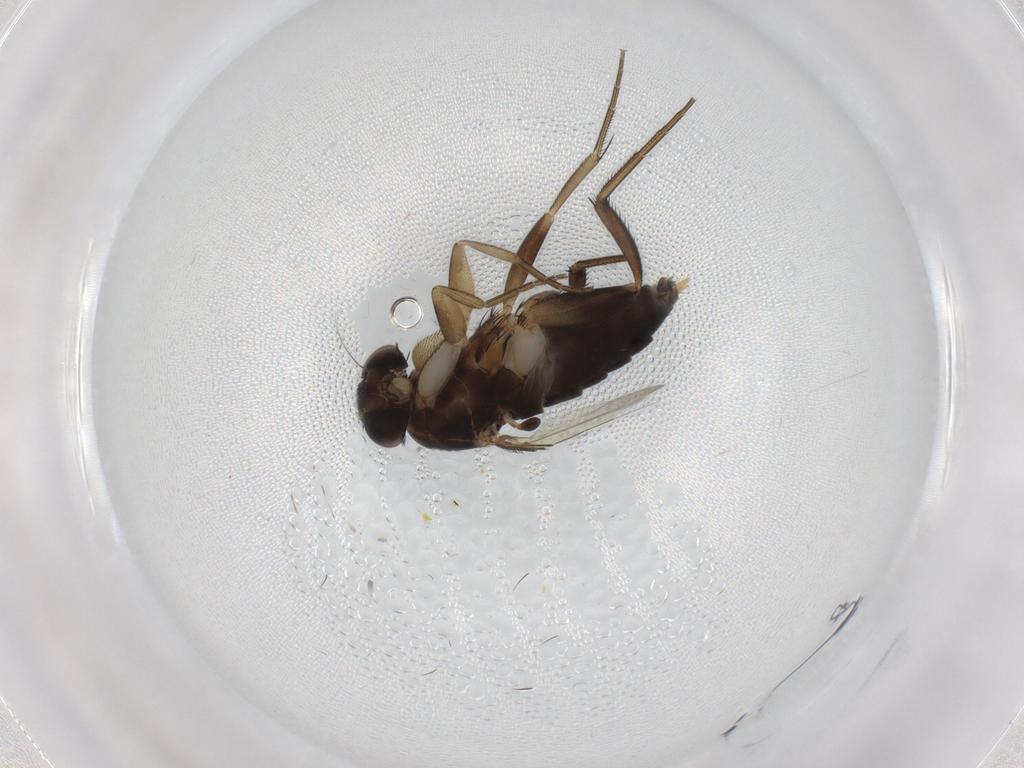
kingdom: Animalia
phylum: Arthropoda
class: Insecta
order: Diptera
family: Phoridae
